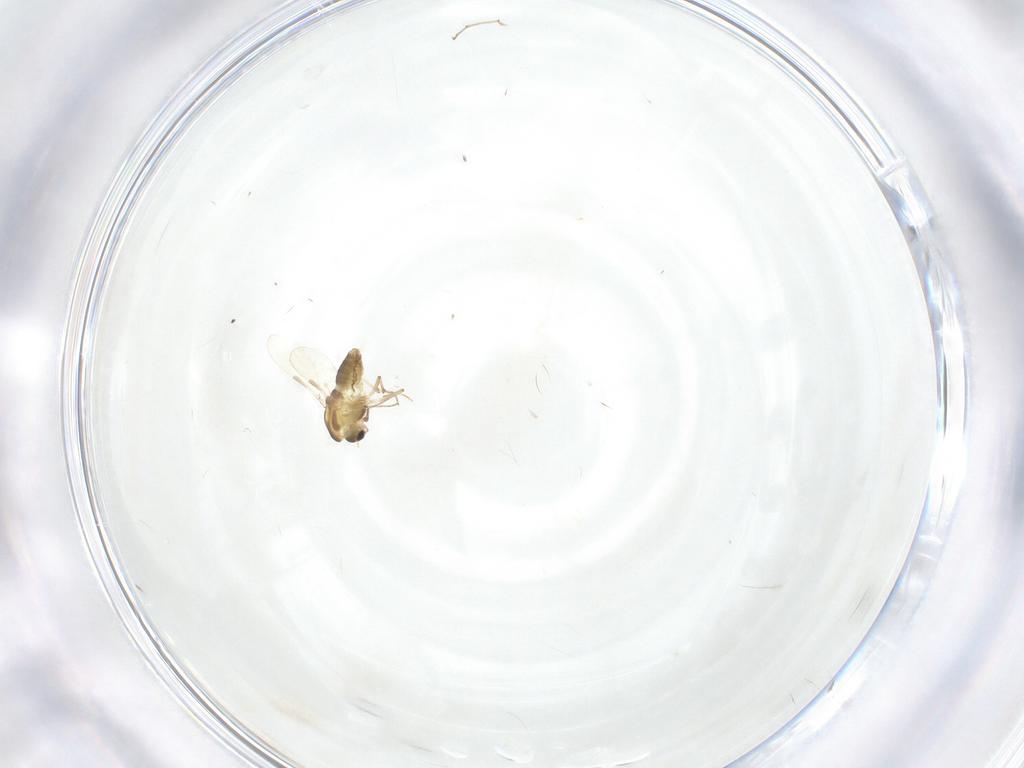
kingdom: Animalia
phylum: Arthropoda
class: Insecta
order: Diptera
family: Chironomidae
